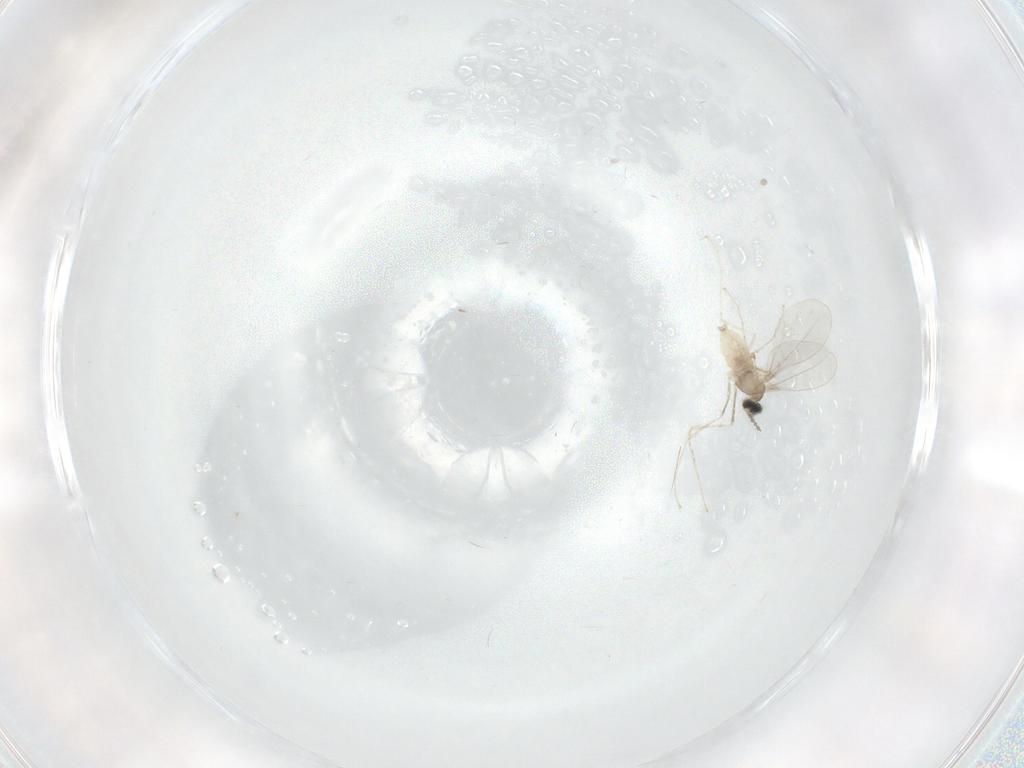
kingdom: Animalia
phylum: Arthropoda
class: Insecta
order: Diptera
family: Cecidomyiidae
